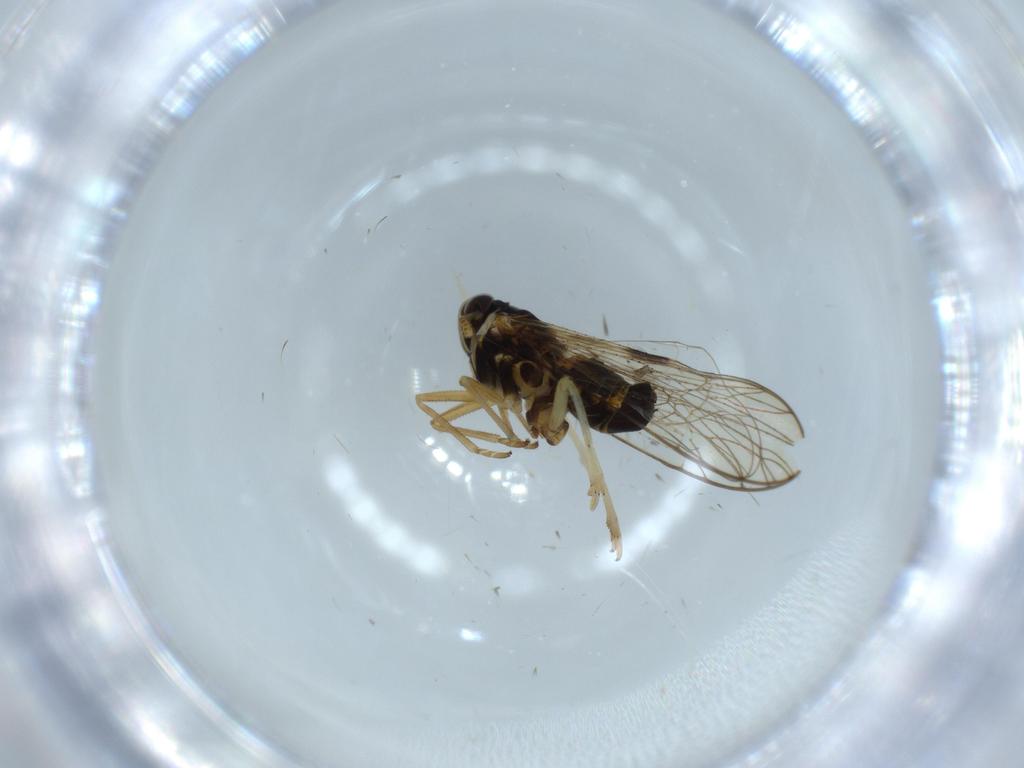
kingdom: Animalia
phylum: Arthropoda
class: Insecta
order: Diptera
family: Phoridae
